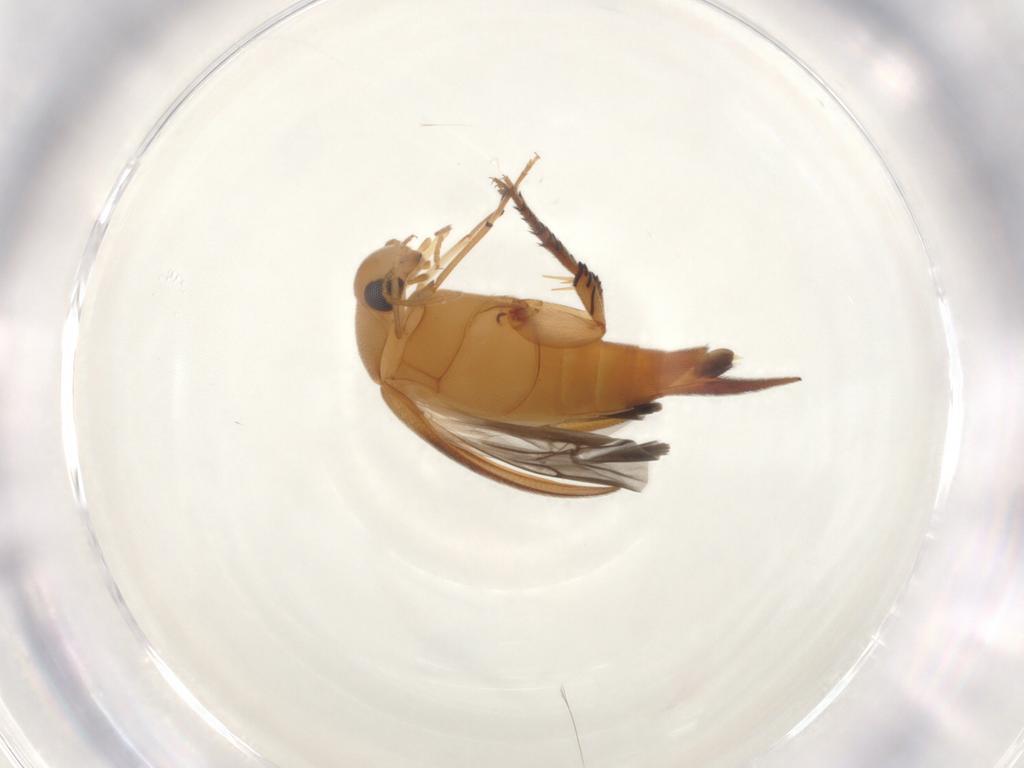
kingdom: Animalia
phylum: Arthropoda
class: Insecta
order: Coleoptera
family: Mordellidae
